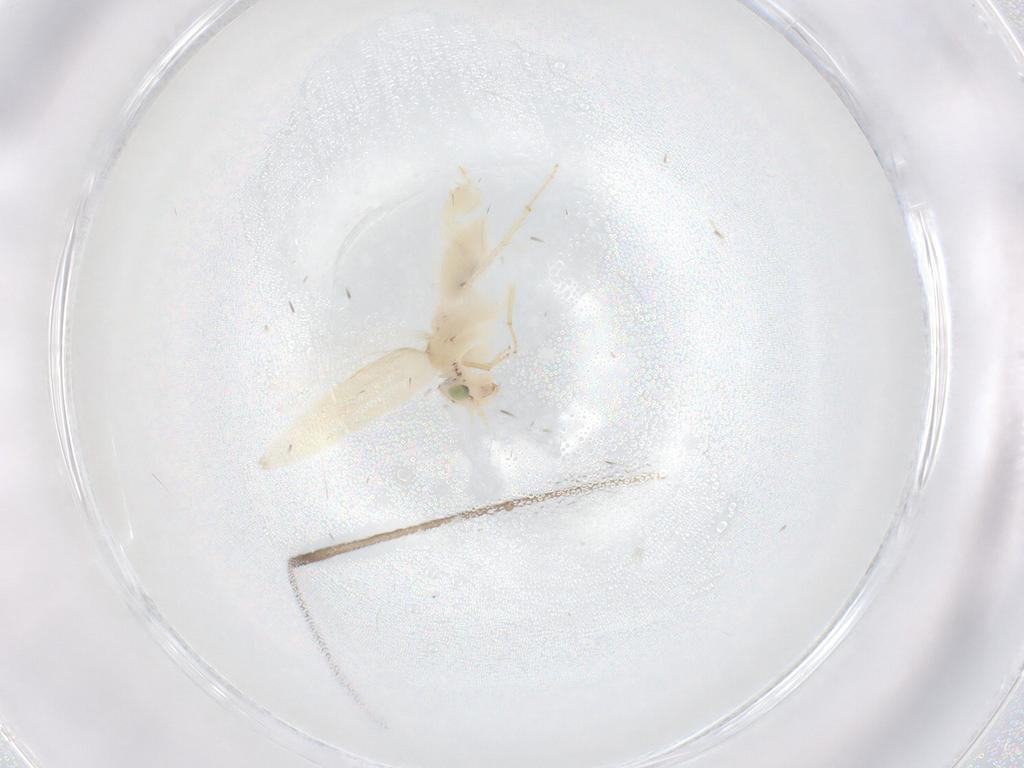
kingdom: Animalia
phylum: Arthropoda
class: Insecta
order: Psocodea
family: Lepidopsocidae
